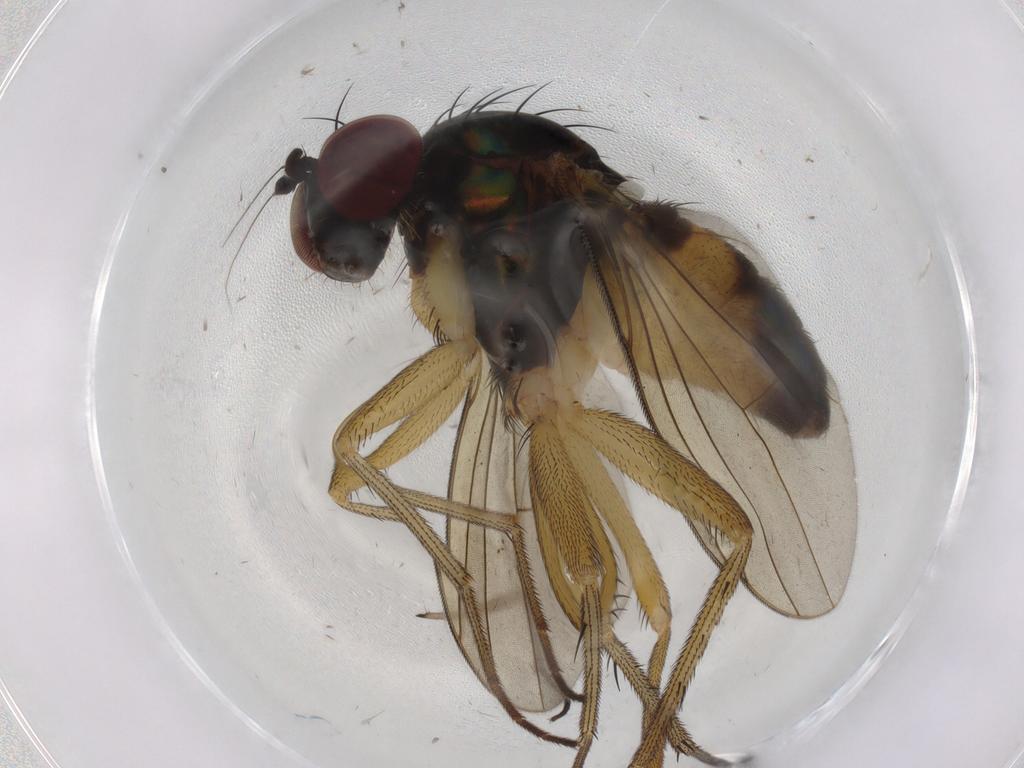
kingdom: Animalia
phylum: Arthropoda
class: Insecta
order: Diptera
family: Dolichopodidae
